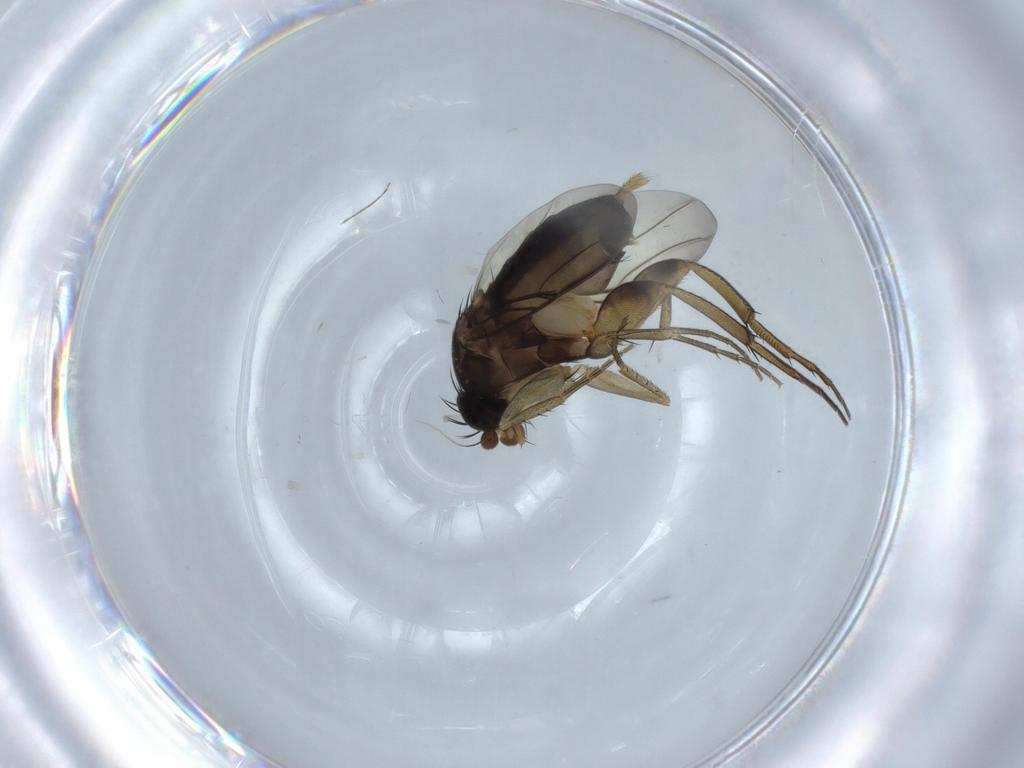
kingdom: Animalia
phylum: Arthropoda
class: Insecta
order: Diptera
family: Phoridae
